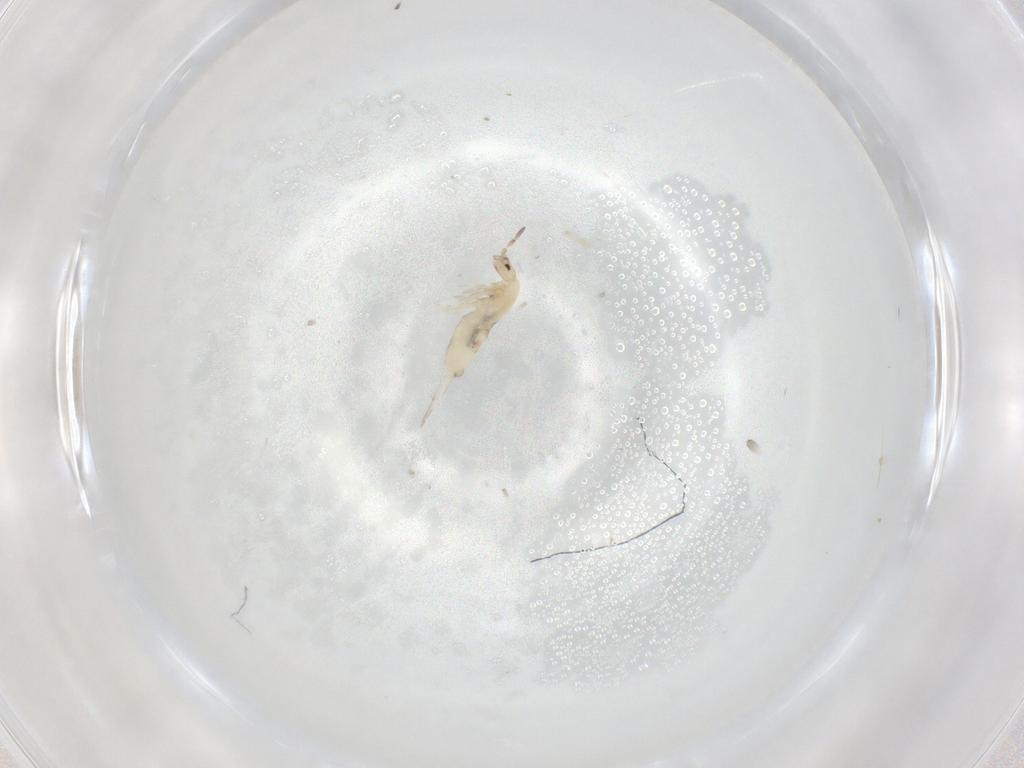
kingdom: Animalia
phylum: Arthropoda
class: Collembola
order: Entomobryomorpha
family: Entomobryidae
